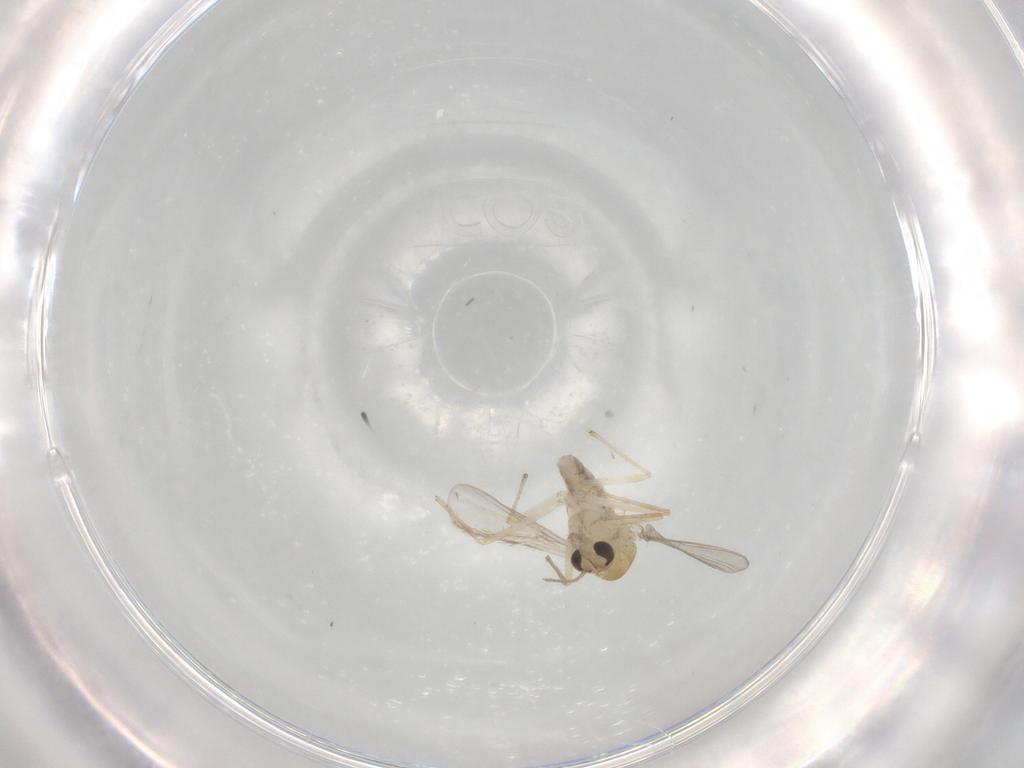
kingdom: Animalia
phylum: Arthropoda
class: Insecta
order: Diptera
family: Chironomidae
